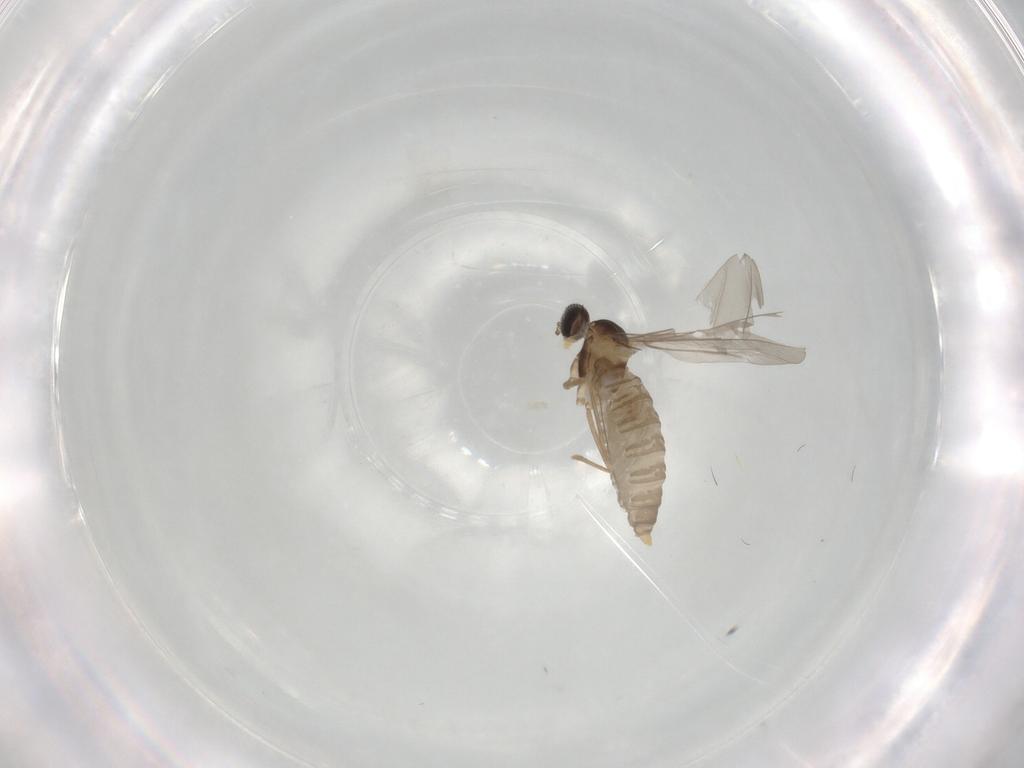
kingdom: Animalia
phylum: Arthropoda
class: Insecta
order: Diptera
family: Cecidomyiidae
